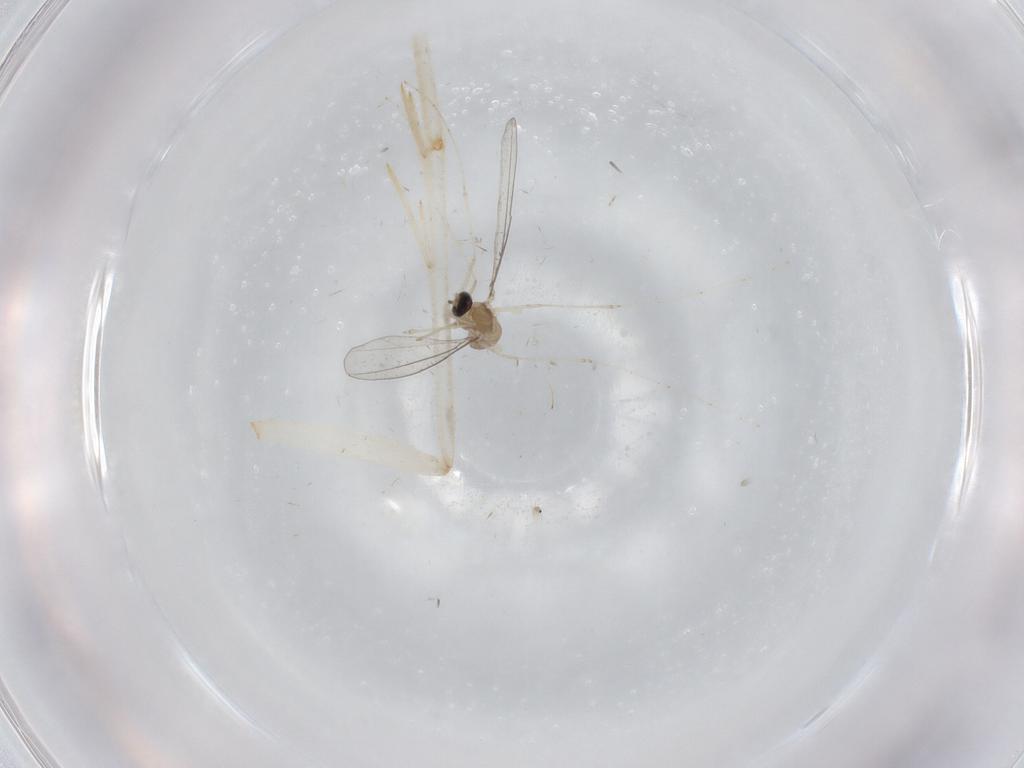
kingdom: Animalia
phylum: Arthropoda
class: Insecta
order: Diptera
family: Cecidomyiidae
